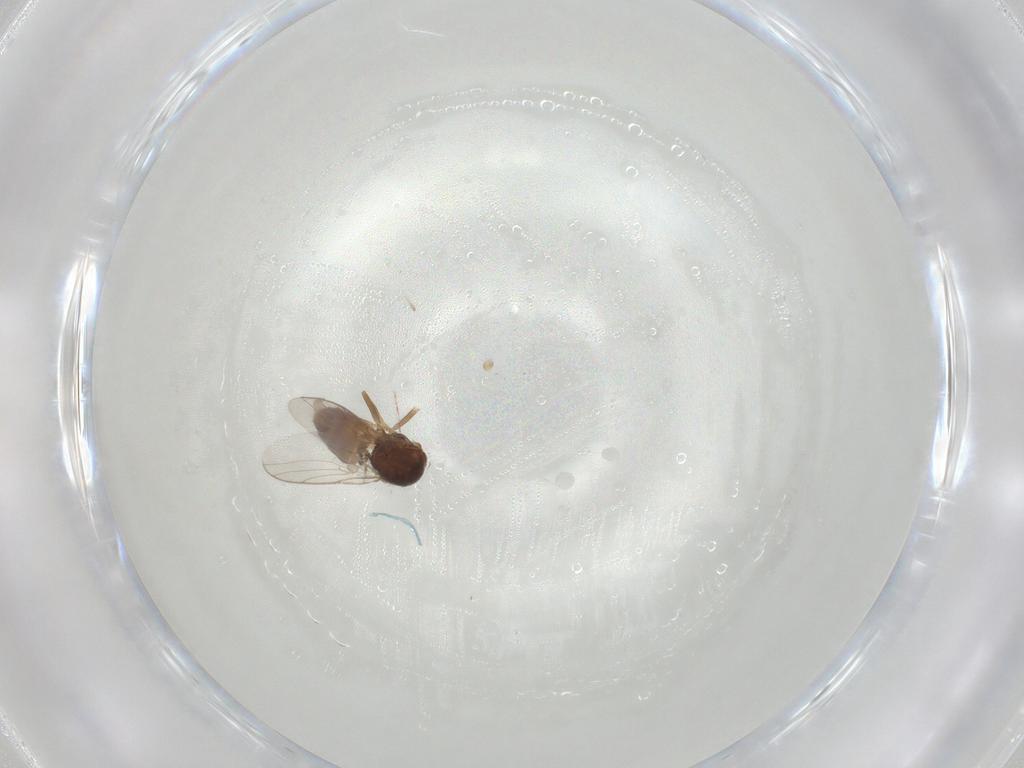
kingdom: Animalia
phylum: Arthropoda
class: Insecta
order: Diptera
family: Chloropidae
